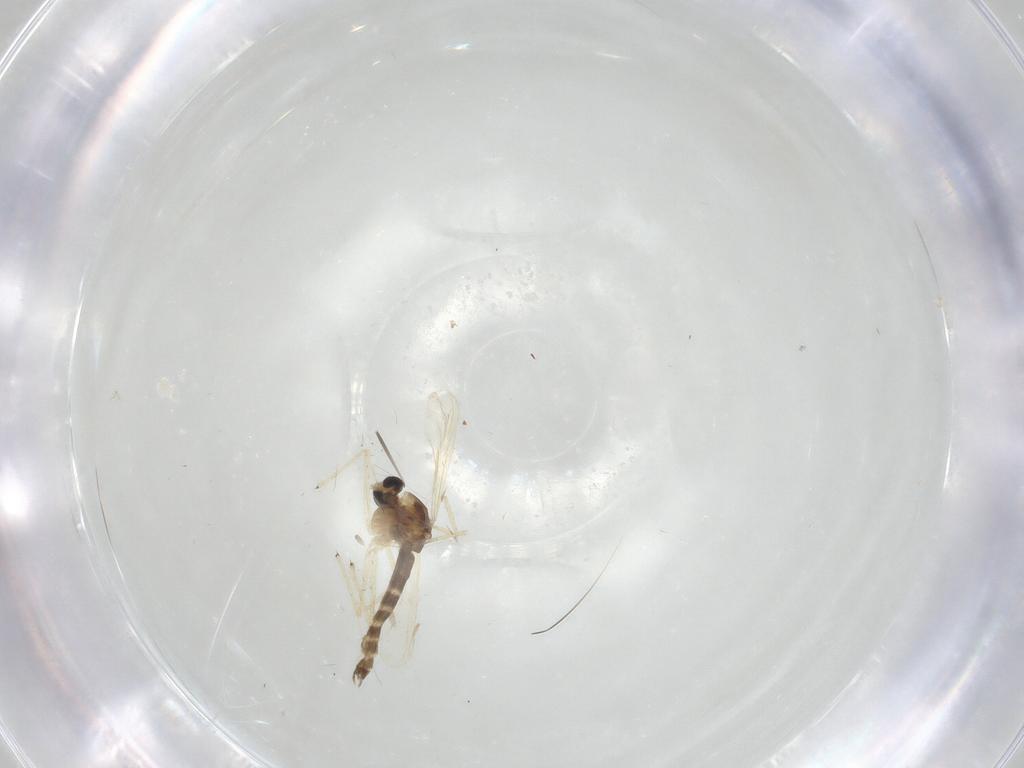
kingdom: Animalia
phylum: Arthropoda
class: Insecta
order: Diptera
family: Chironomidae
